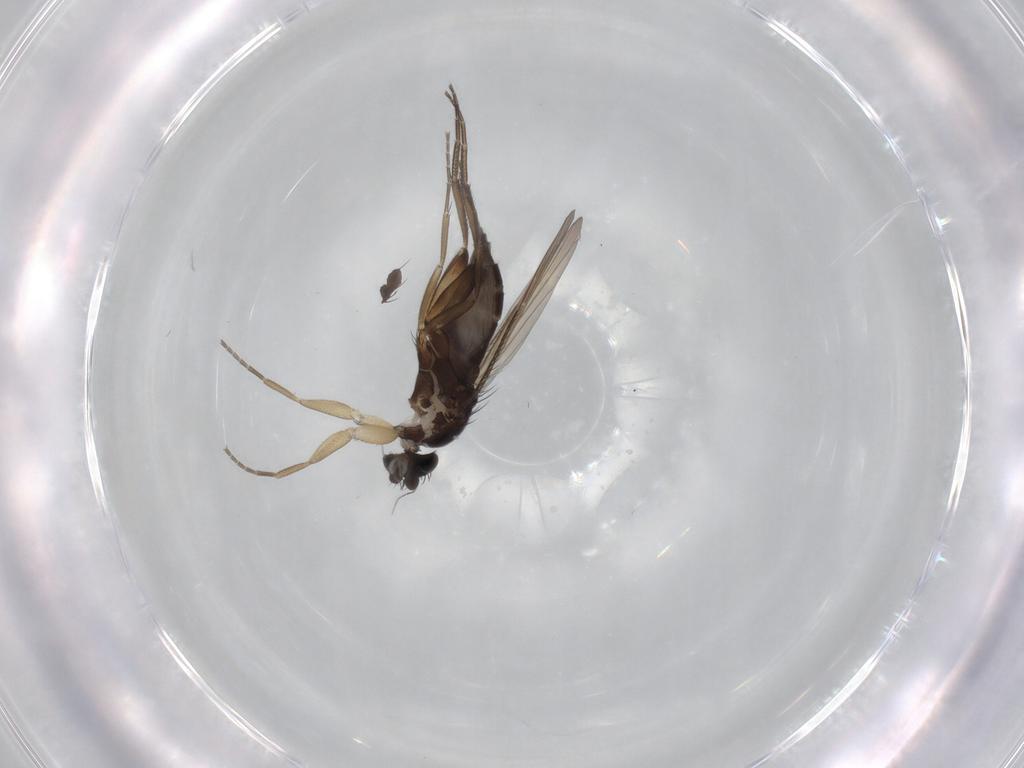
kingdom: Animalia
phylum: Arthropoda
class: Insecta
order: Diptera
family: Phoridae
